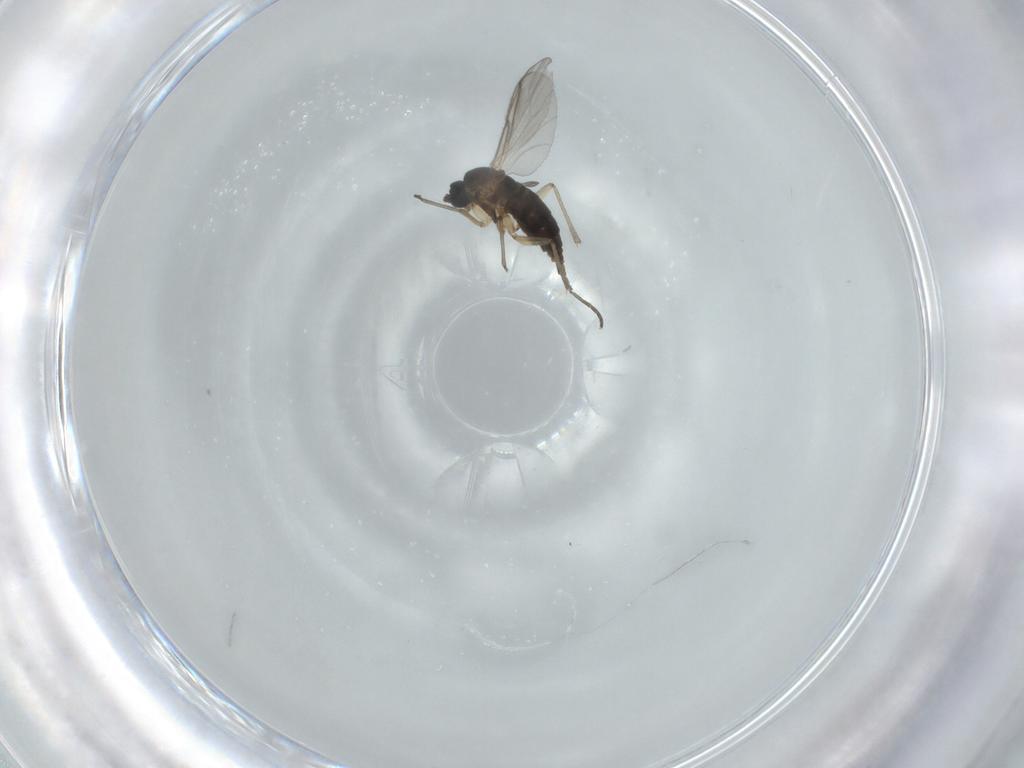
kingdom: Animalia
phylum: Arthropoda
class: Insecta
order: Diptera
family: Sciaridae
